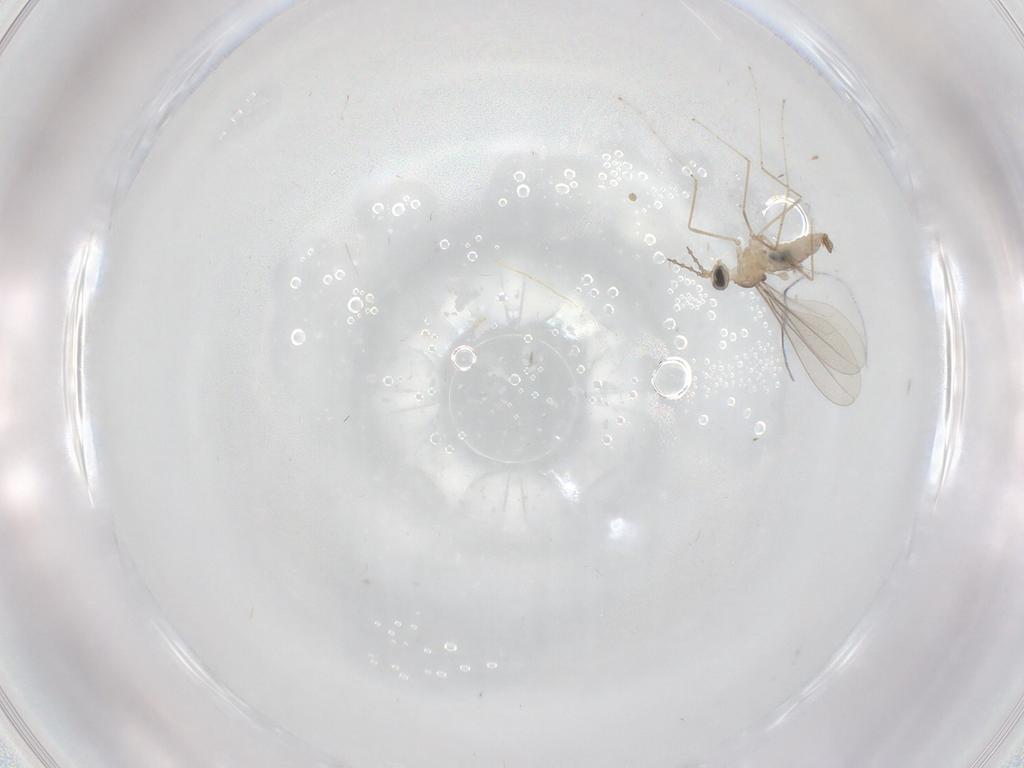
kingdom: Animalia
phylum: Arthropoda
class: Insecta
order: Diptera
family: Cecidomyiidae
